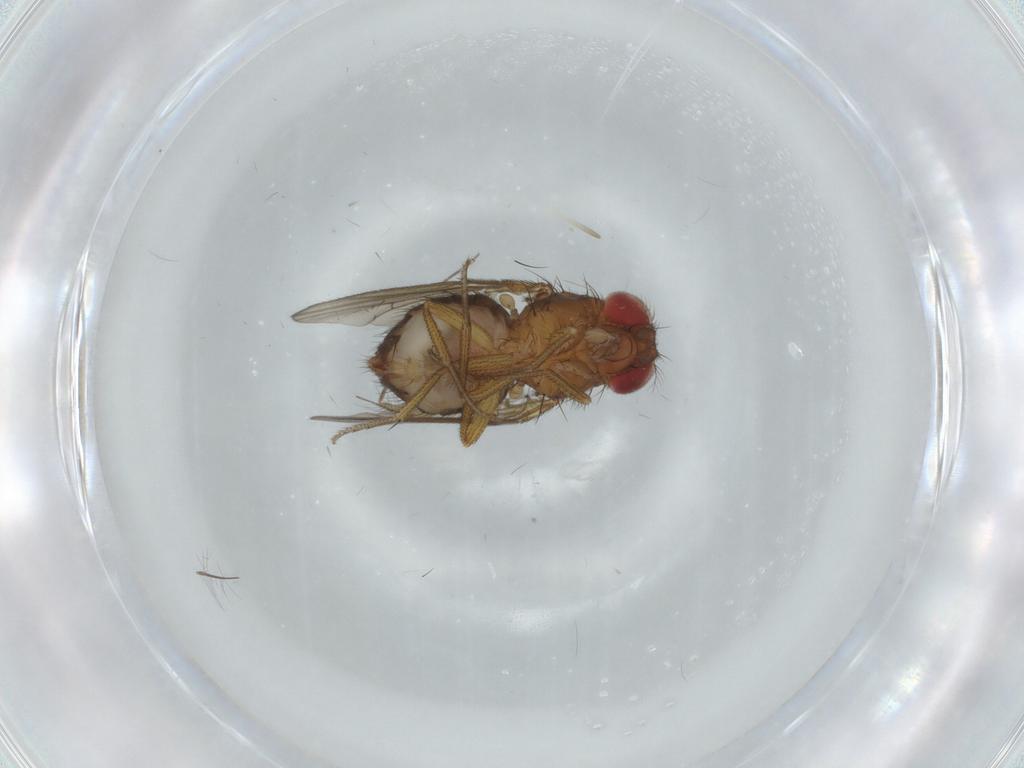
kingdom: Animalia
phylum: Arthropoda
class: Insecta
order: Diptera
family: Drosophilidae
